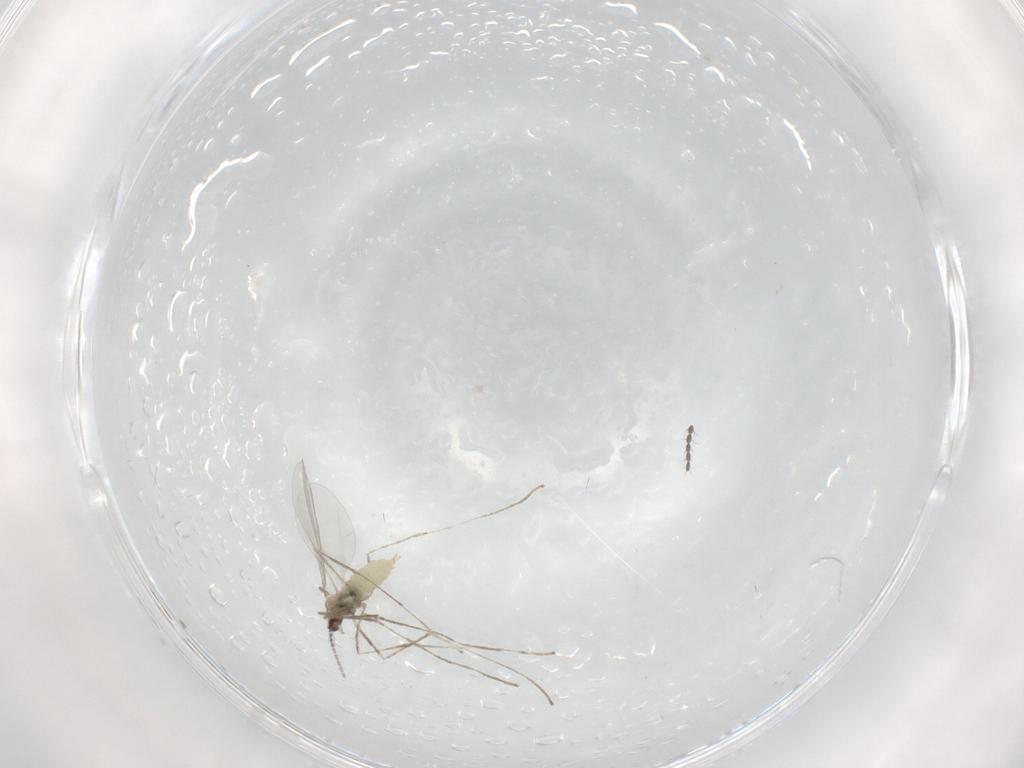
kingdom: Animalia
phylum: Arthropoda
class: Insecta
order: Diptera
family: Limoniidae
